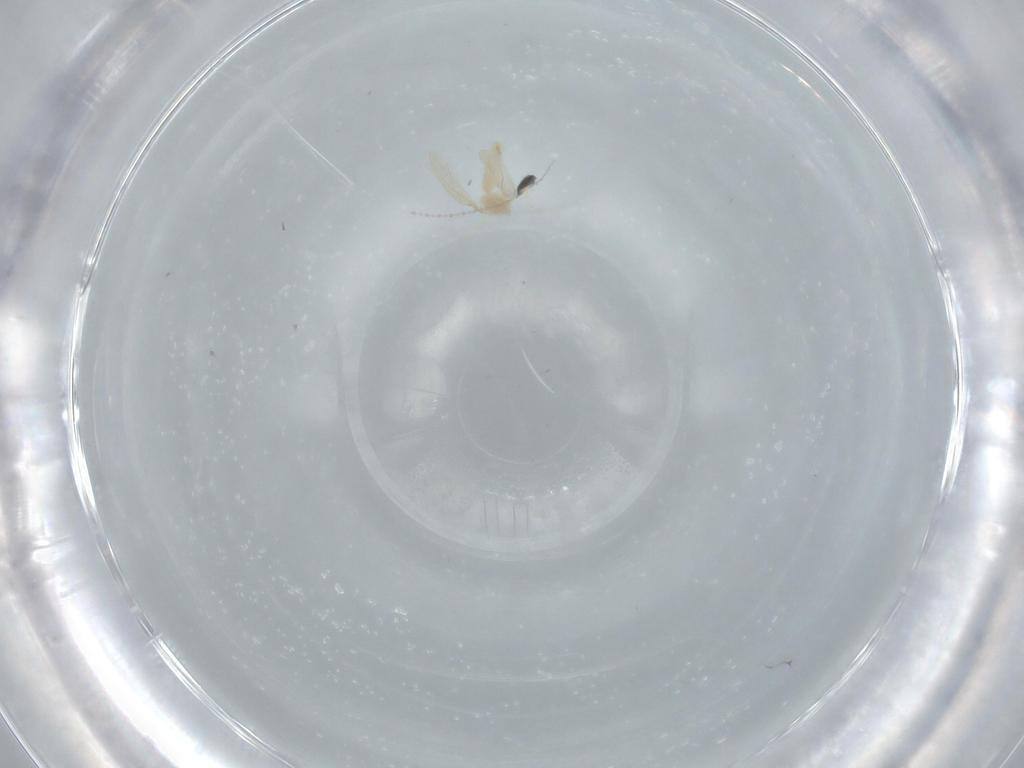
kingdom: Animalia
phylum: Arthropoda
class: Insecta
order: Diptera
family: Cecidomyiidae
